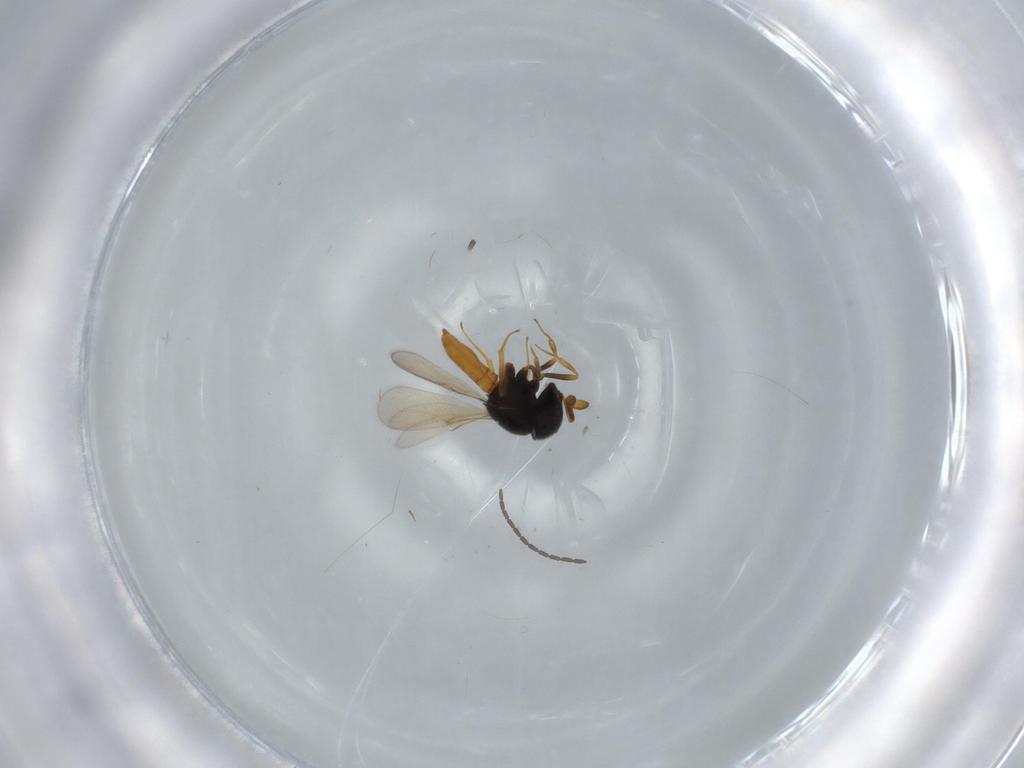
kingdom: Animalia
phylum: Arthropoda
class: Insecta
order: Hymenoptera
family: Scelionidae
